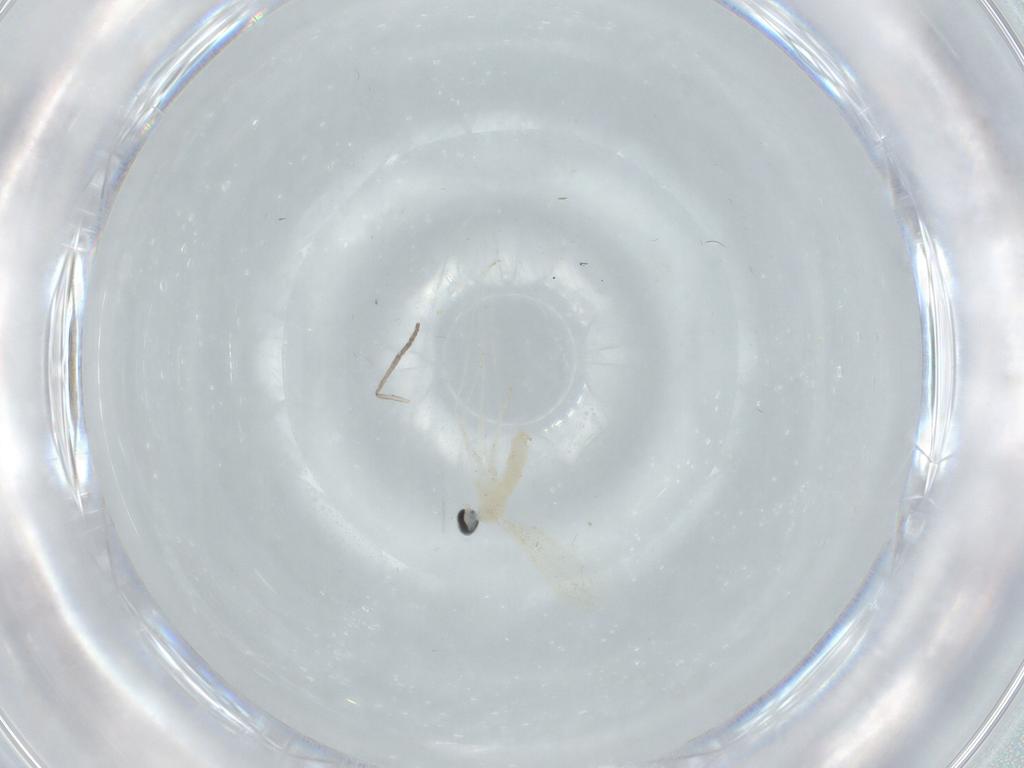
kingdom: Animalia
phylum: Arthropoda
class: Insecta
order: Diptera
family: Cecidomyiidae
